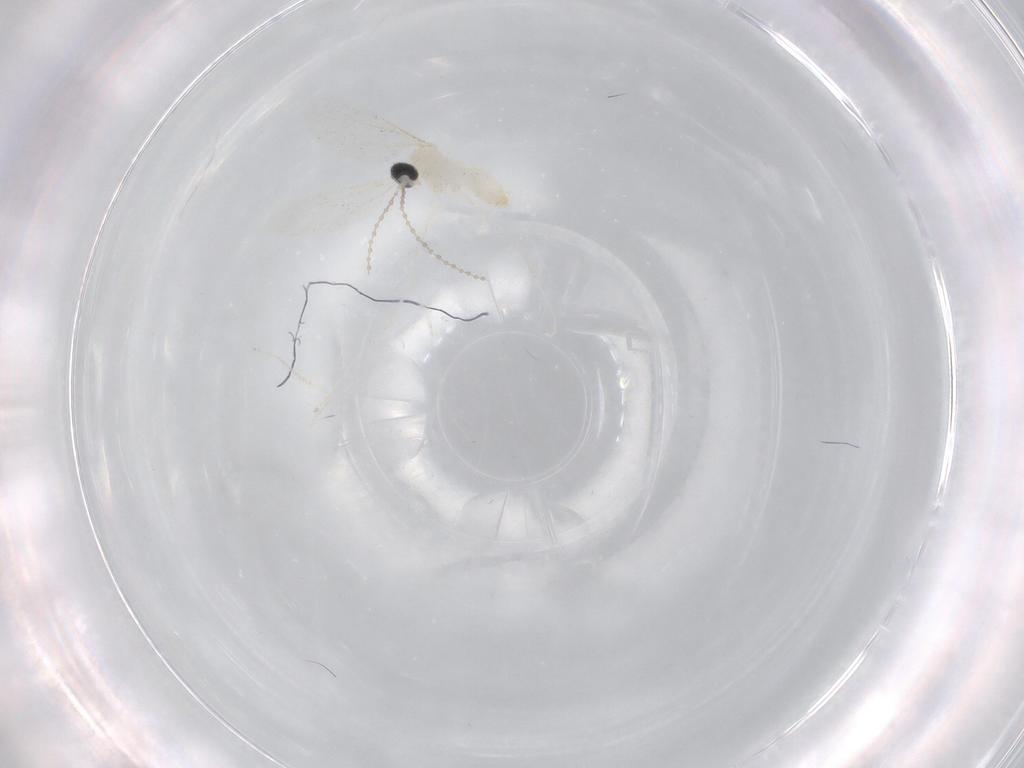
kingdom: Animalia
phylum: Arthropoda
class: Insecta
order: Diptera
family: Cecidomyiidae
